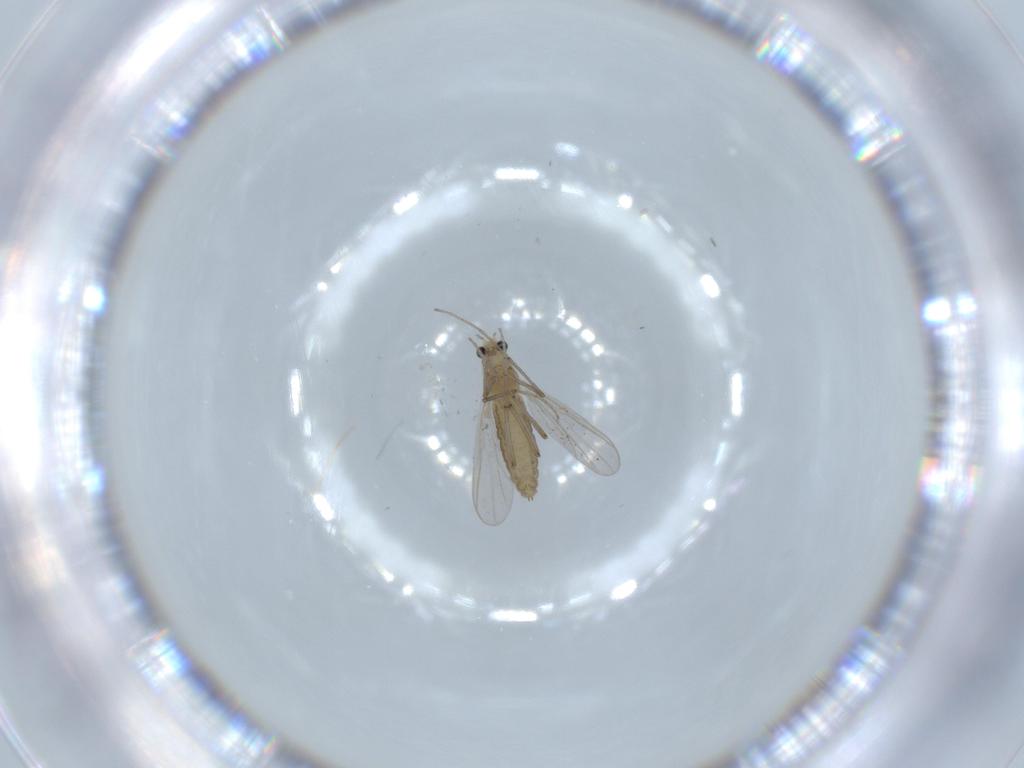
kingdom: Animalia
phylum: Arthropoda
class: Insecta
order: Diptera
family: Chironomidae
